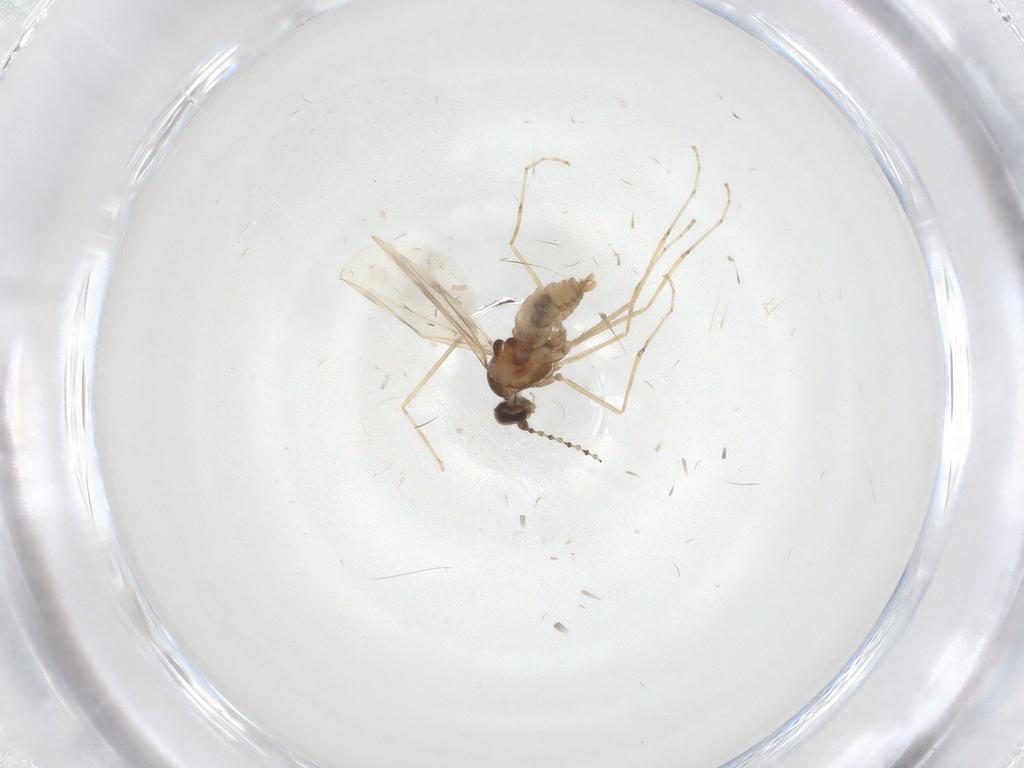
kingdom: Animalia
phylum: Arthropoda
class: Insecta
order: Diptera
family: Cecidomyiidae
